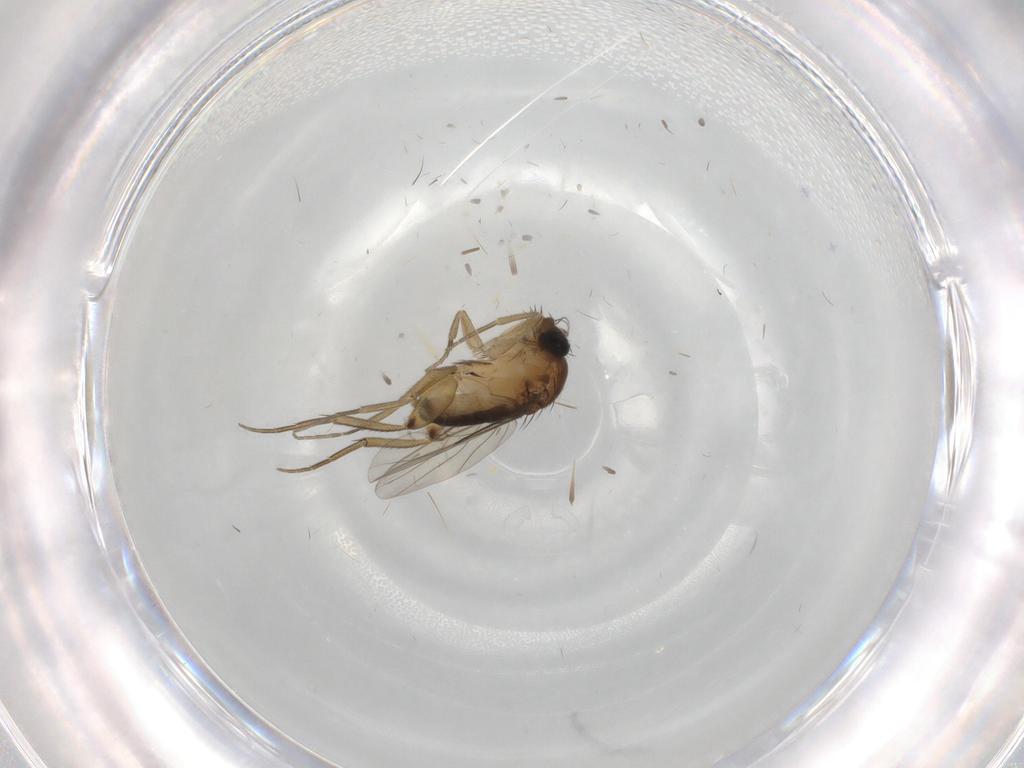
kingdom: Animalia
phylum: Arthropoda
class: Insecta
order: Diptera
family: Phoridae
